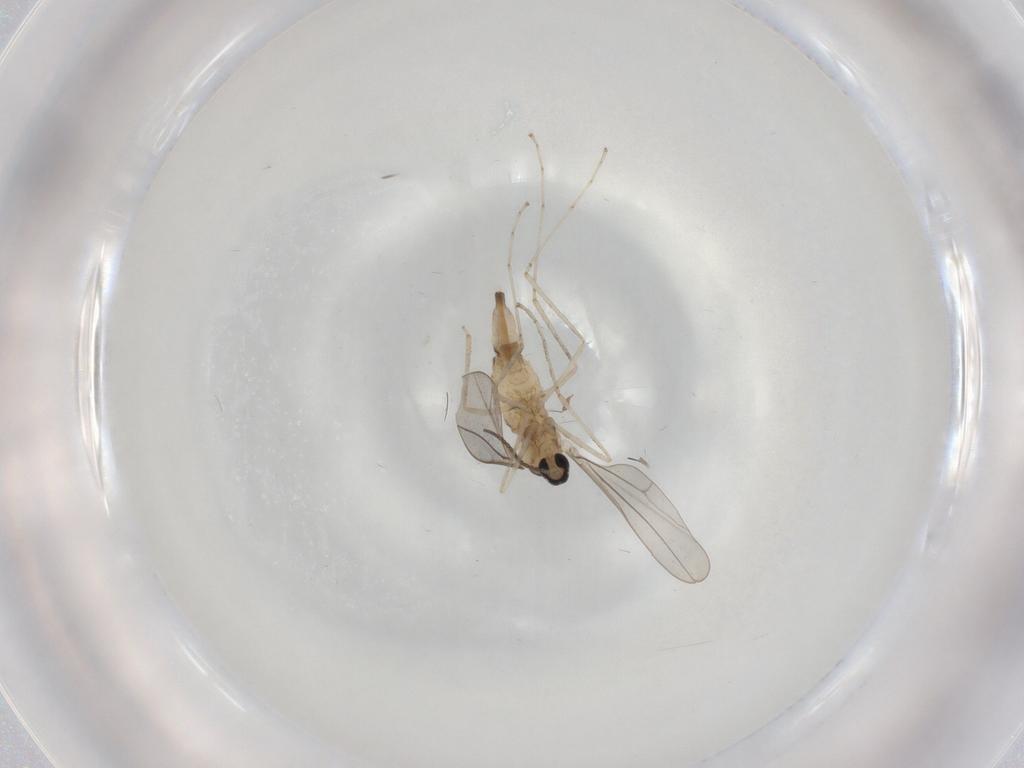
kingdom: Animalia
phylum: Arthropoda
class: Insecta
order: Diptera
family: Cecidomyiidae
